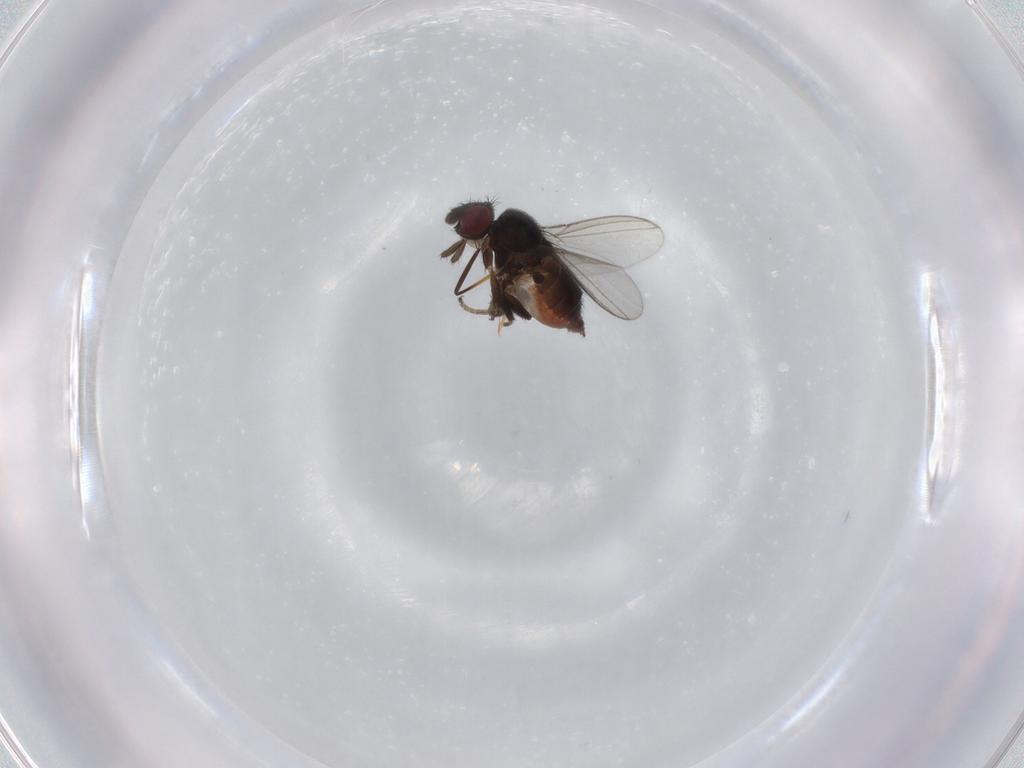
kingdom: Animalia
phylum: Arthropoda
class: Insecta
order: Diptera
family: Milichiidae
